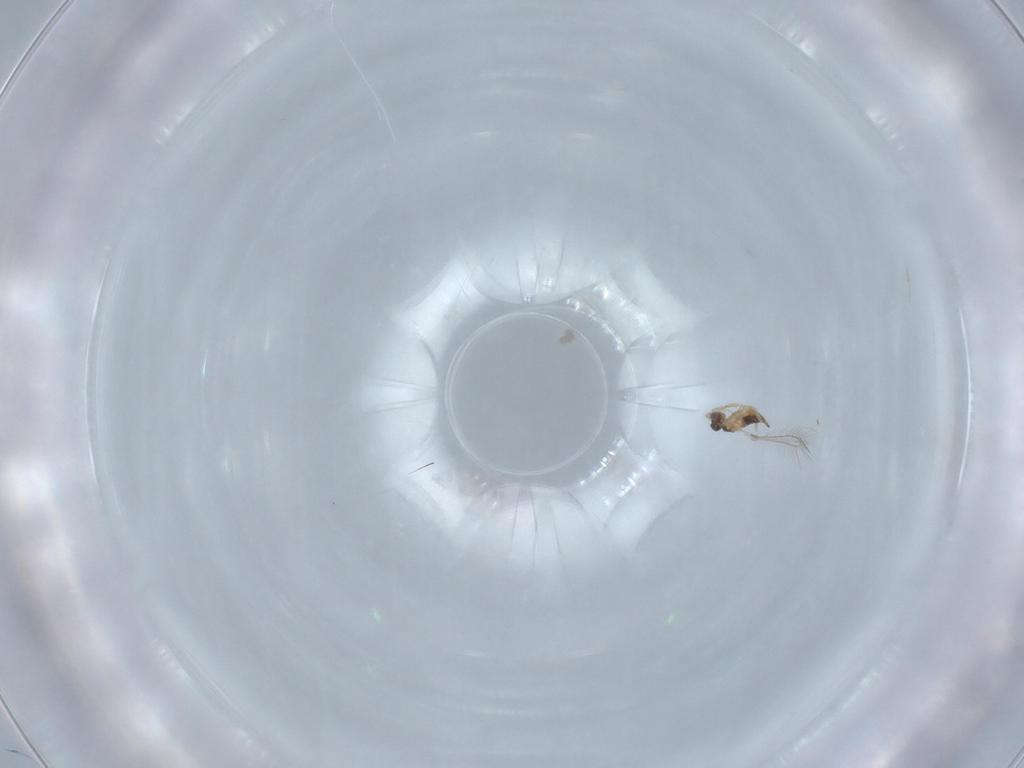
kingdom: Animalia
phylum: Arthropoda
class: Insecta
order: Hymenoptera
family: Mymaridae
